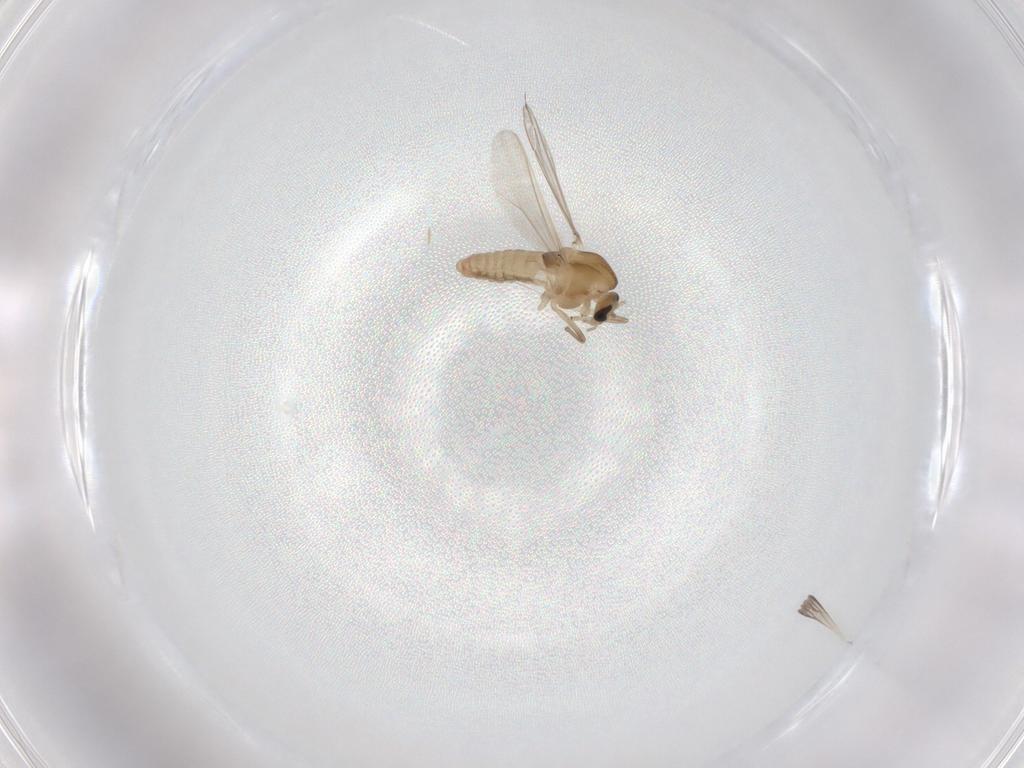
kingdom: Animalia
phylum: Arthropoda
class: Insecta
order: Diptera
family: Chironomidae
